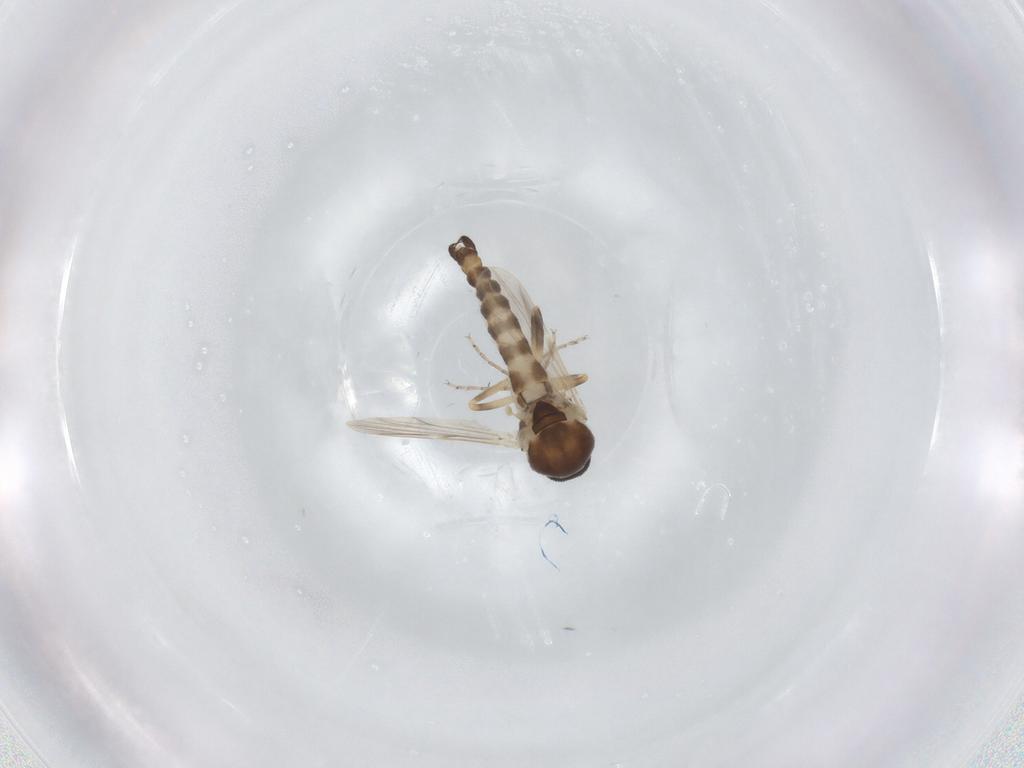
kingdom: Animalia
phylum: Arthropoda
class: Insecta
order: Diptera
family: Ceratopogonidae
